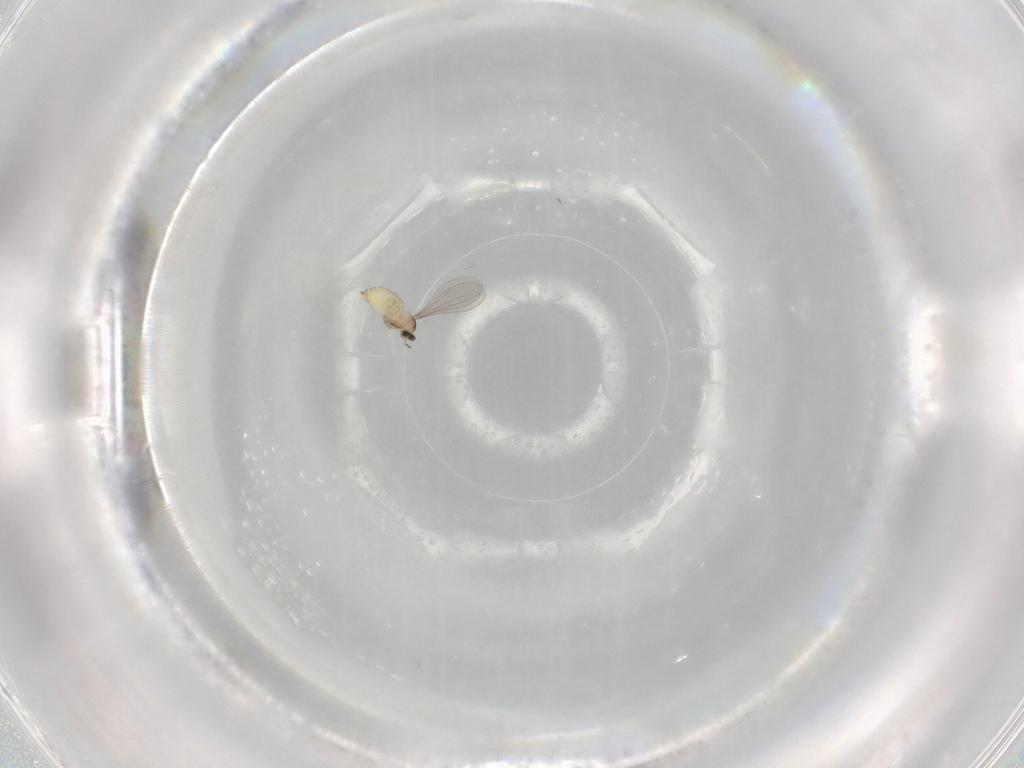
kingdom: Animalia
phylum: Arthropoda
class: Insecta
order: Diptera
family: Cecidomyiidae
